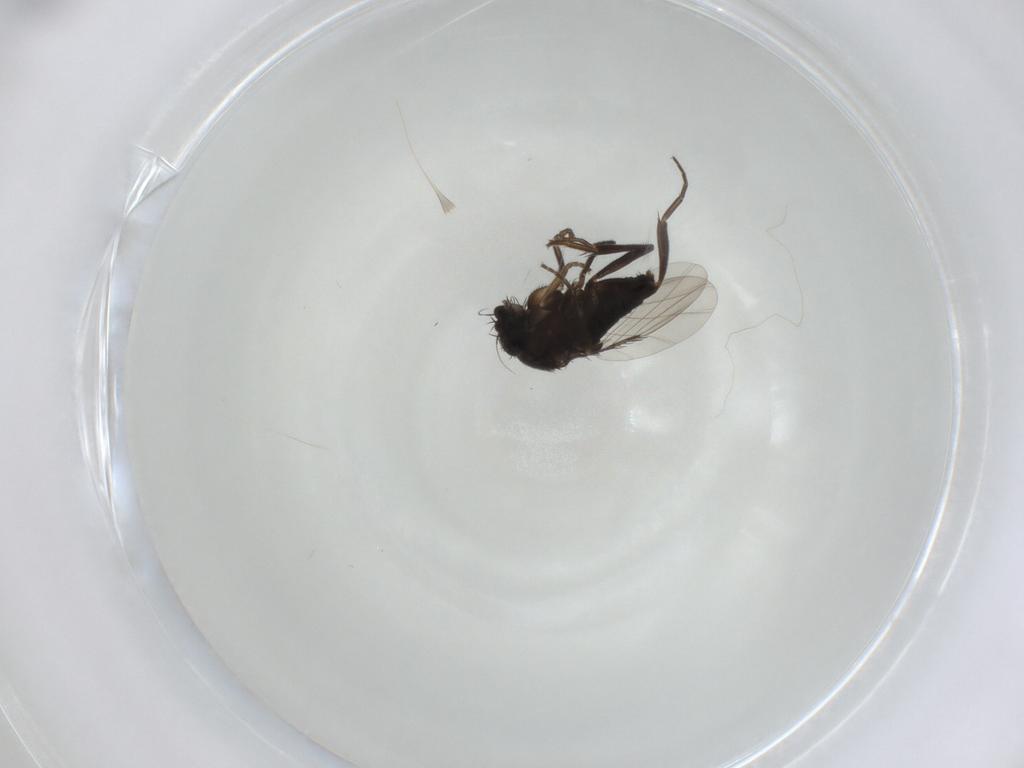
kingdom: Animalia
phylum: Arthropoda
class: Insecta
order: Diptera
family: Phoridae
